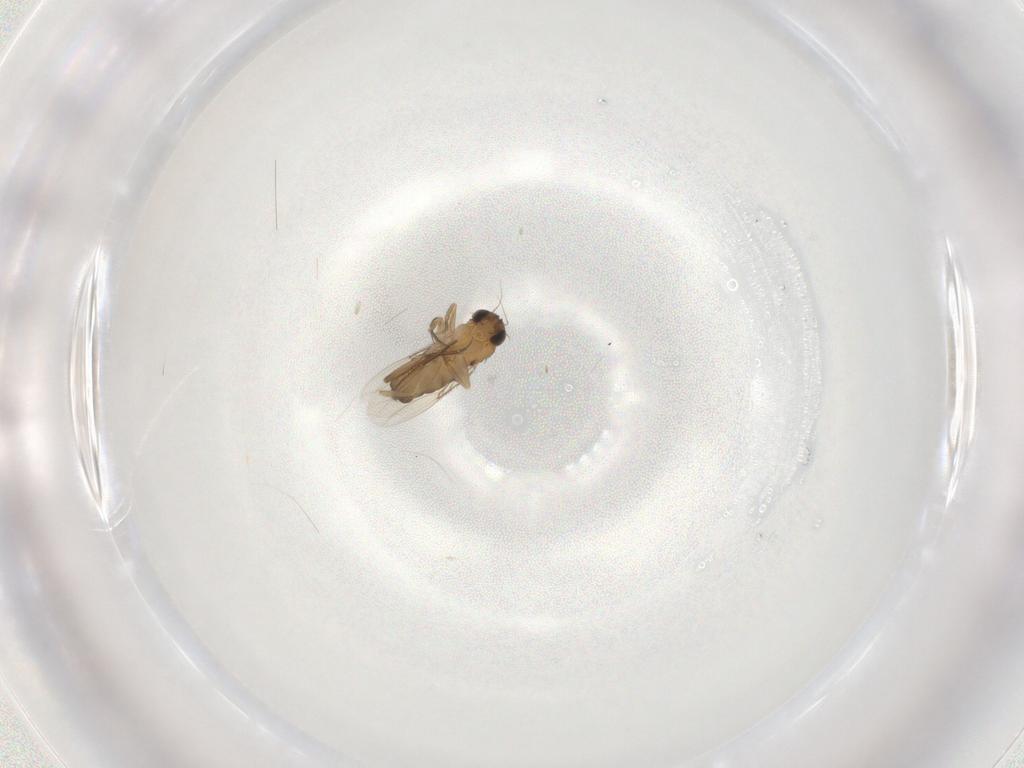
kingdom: Animalia
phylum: Arthropoda
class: Insecta
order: Diptera
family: Phoridae
